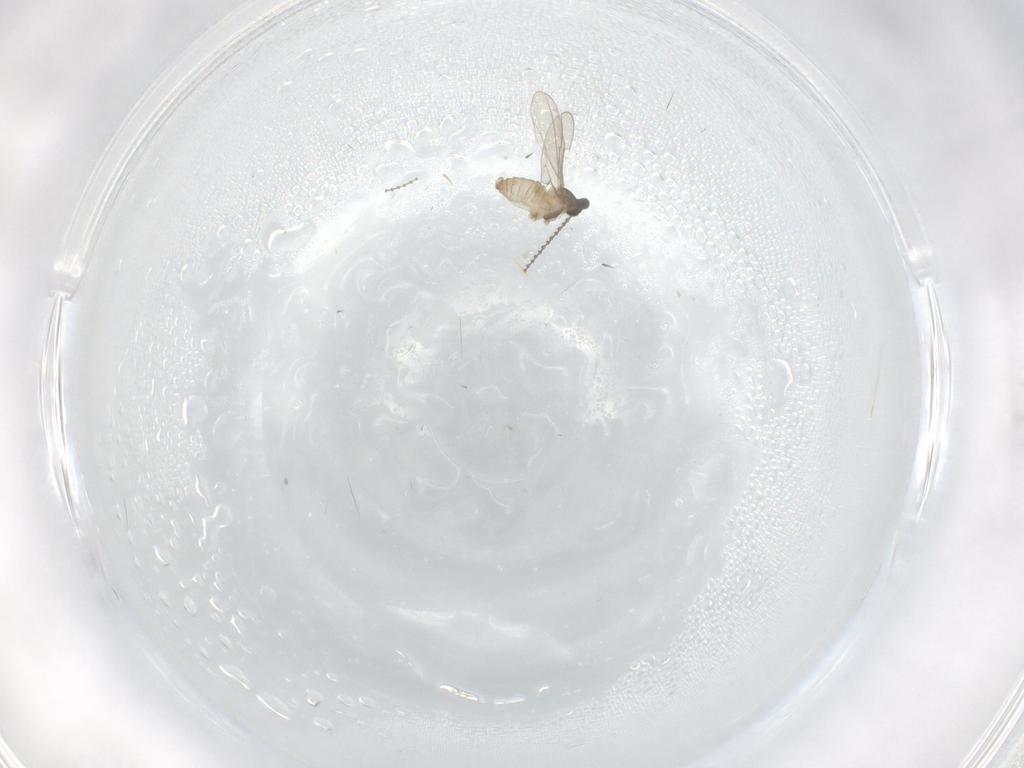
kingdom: Animalia
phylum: Arthropoda
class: Insecta
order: Diptera
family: Cecidomyiidae
